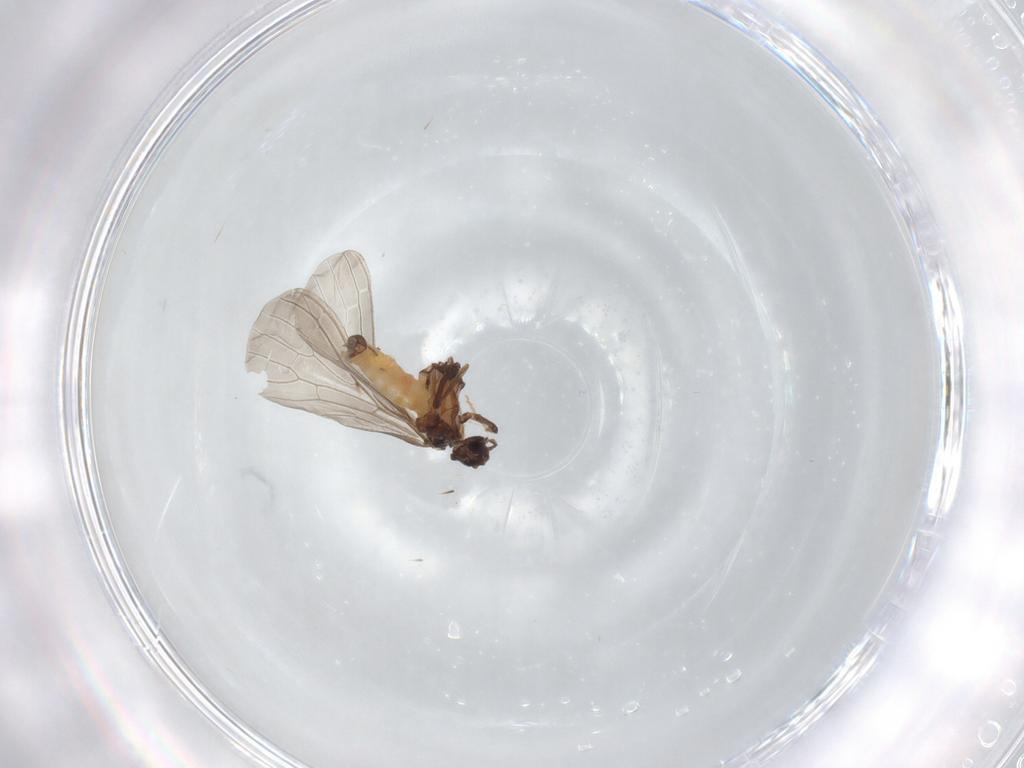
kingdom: Animalia
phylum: Arthropoda
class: Insecta
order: Neuroptera
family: Coniopterygidae
